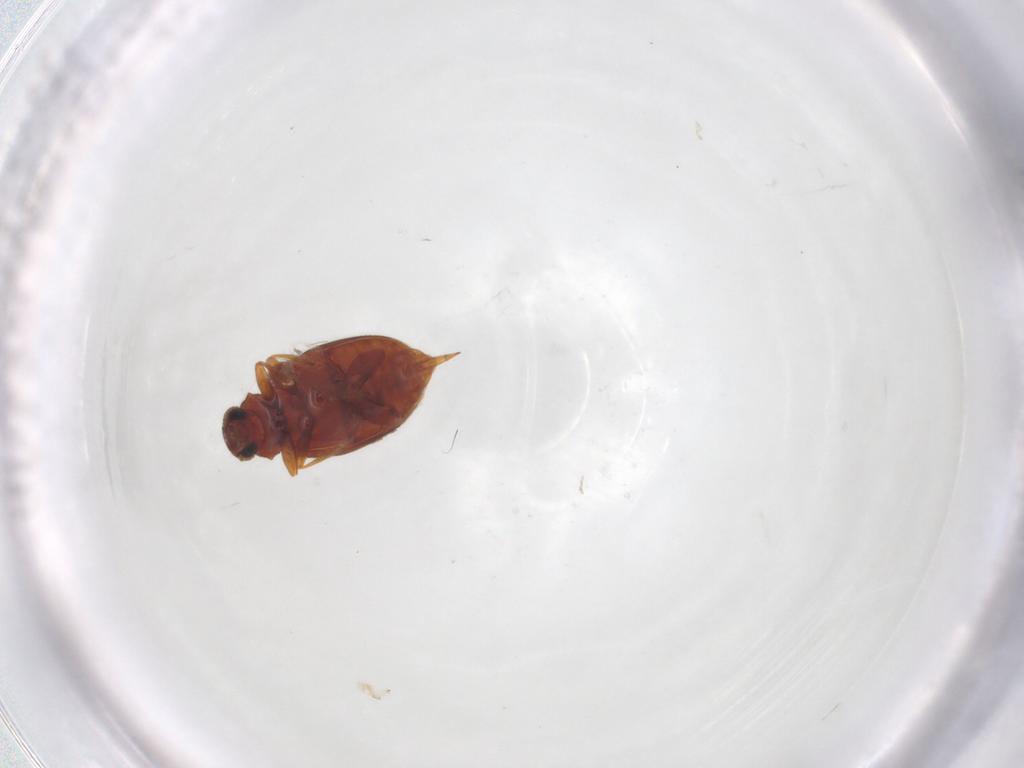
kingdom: Animalia
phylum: Arthropoda
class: Insecta
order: Coleoptera
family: Latridiidae
